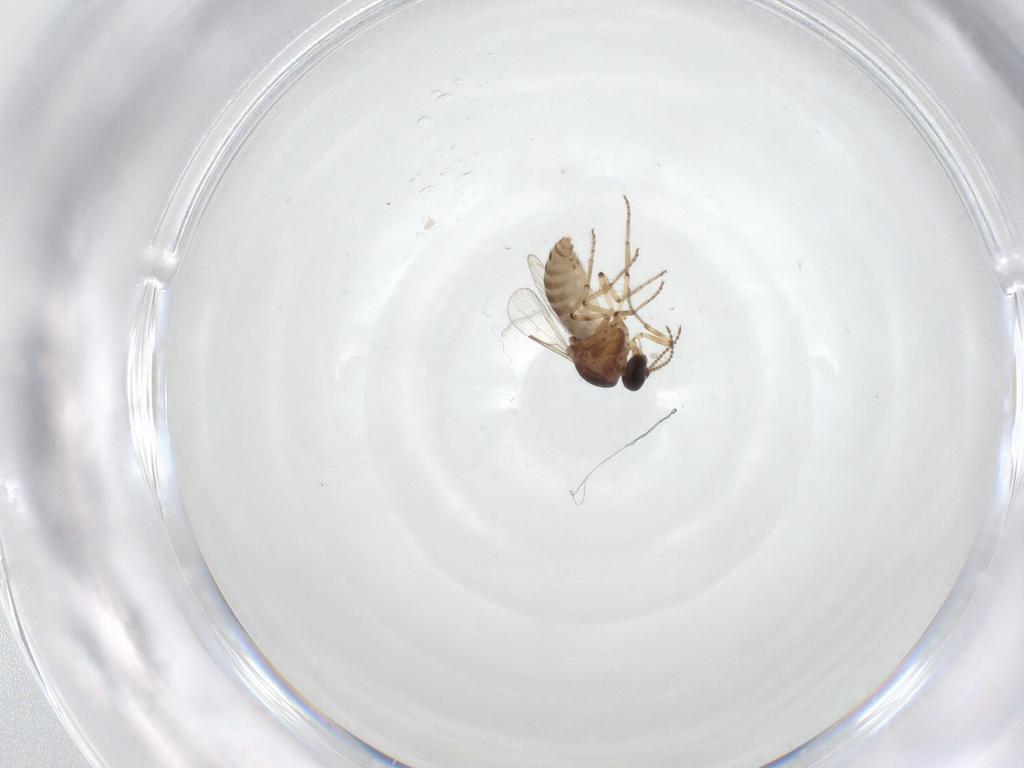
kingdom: Animalia
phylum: Arthropoda
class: Insecta
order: Diptera
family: Ceratopogonidae
